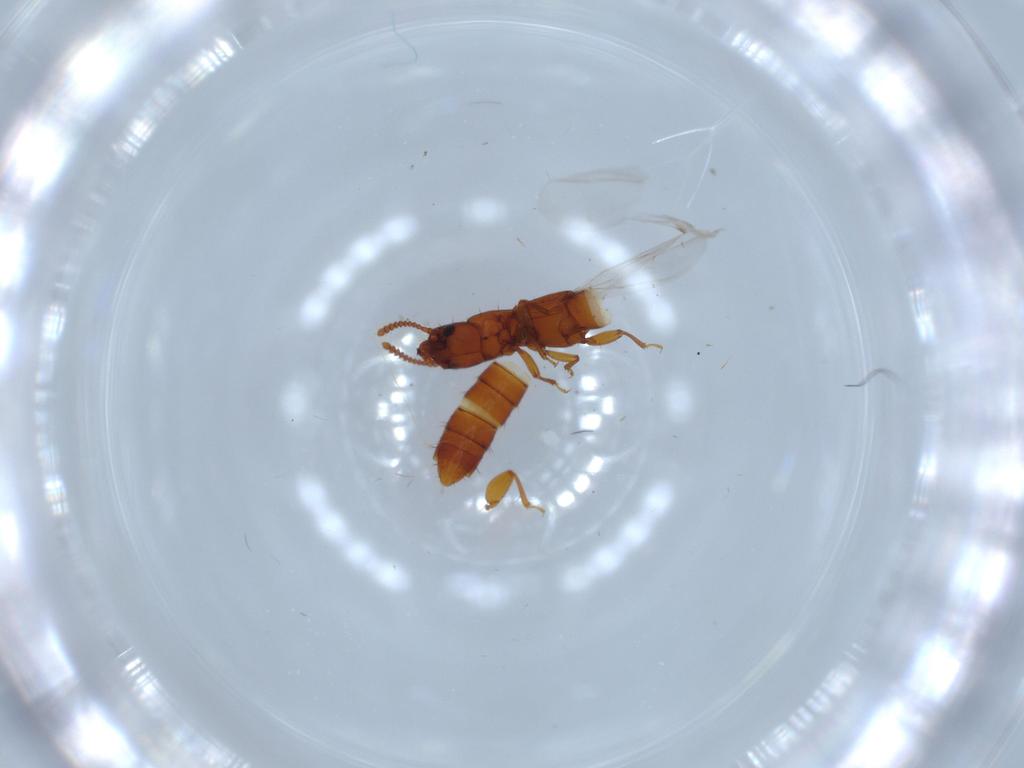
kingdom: Animalia
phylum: Arthropoda
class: Insecta
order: Coleoptera
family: Staphylinidae
